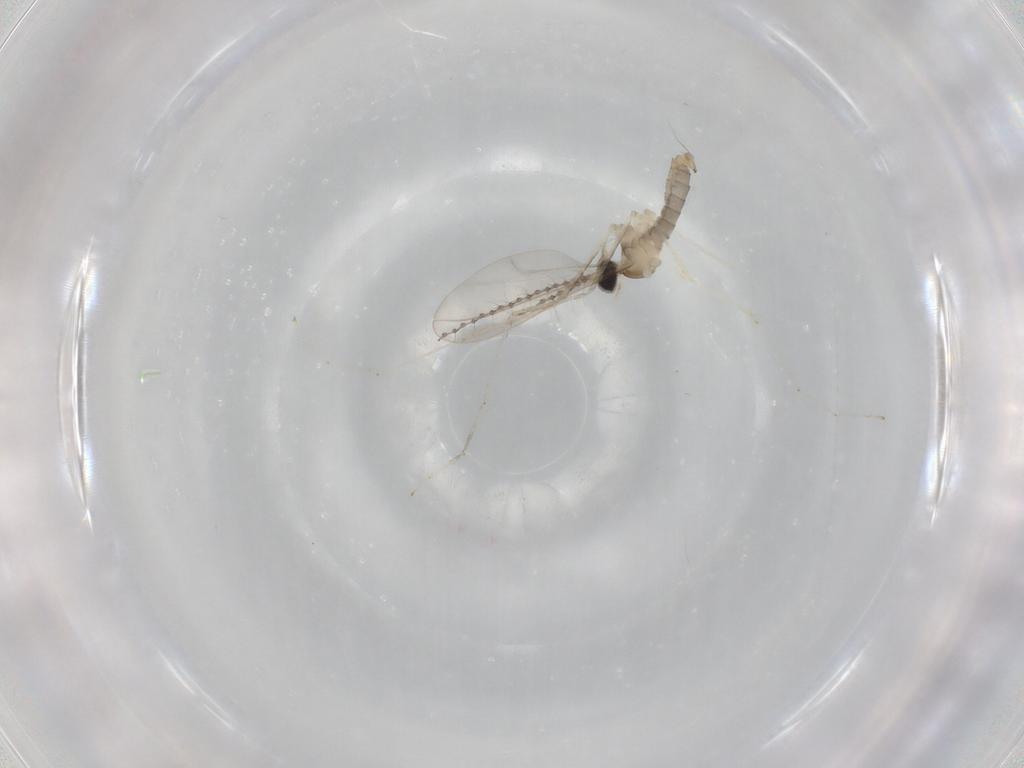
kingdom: Animalia
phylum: Arthropoda
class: Insecta
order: Diptera
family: Cecidomyiidae
